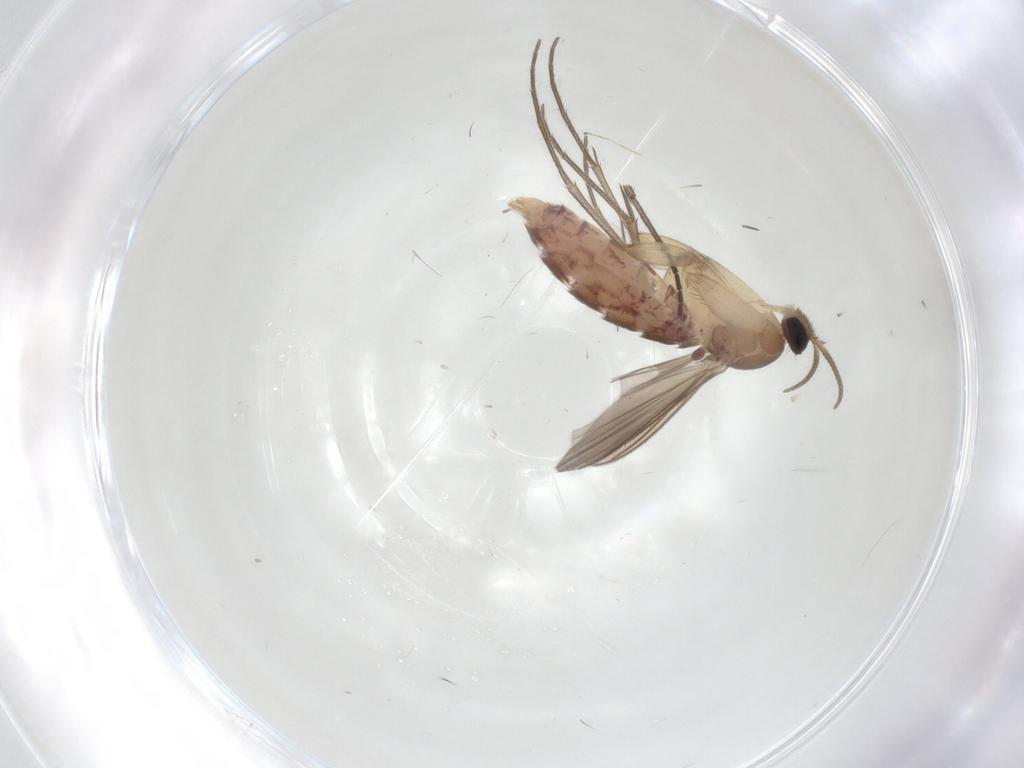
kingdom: Animalia
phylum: Arthropoda
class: Insecta
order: Diptera
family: Mycetophilidae
